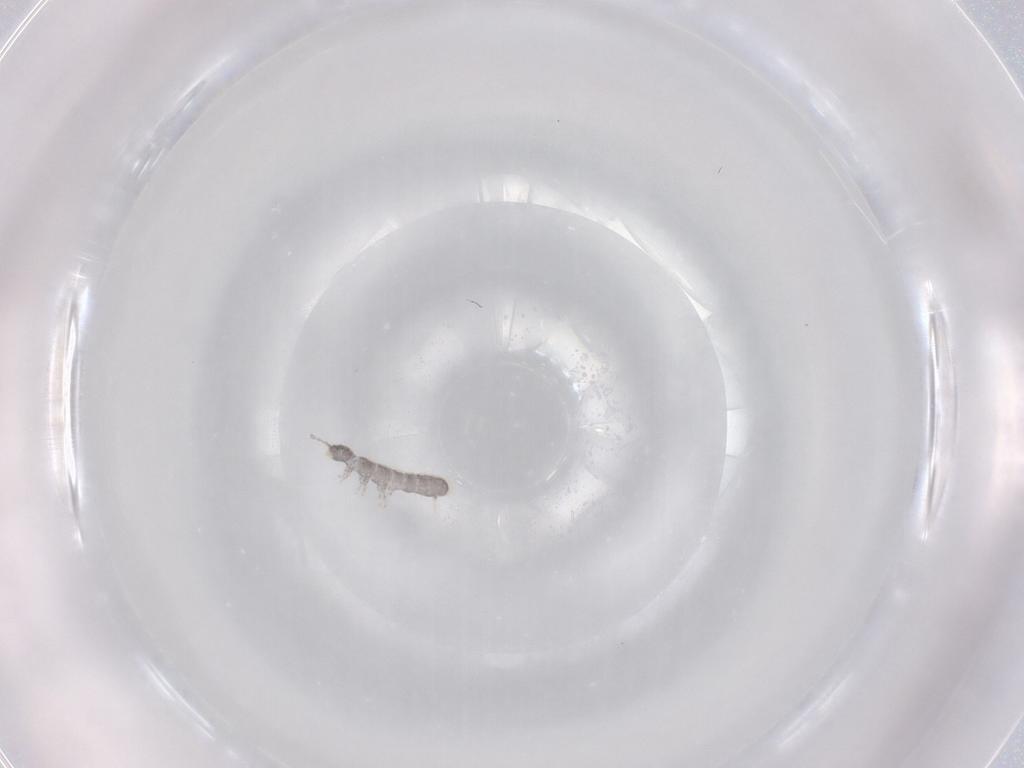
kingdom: Animalia
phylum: Arthropoda
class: Collembola
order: Entomobryomorpha
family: Isotomidae
